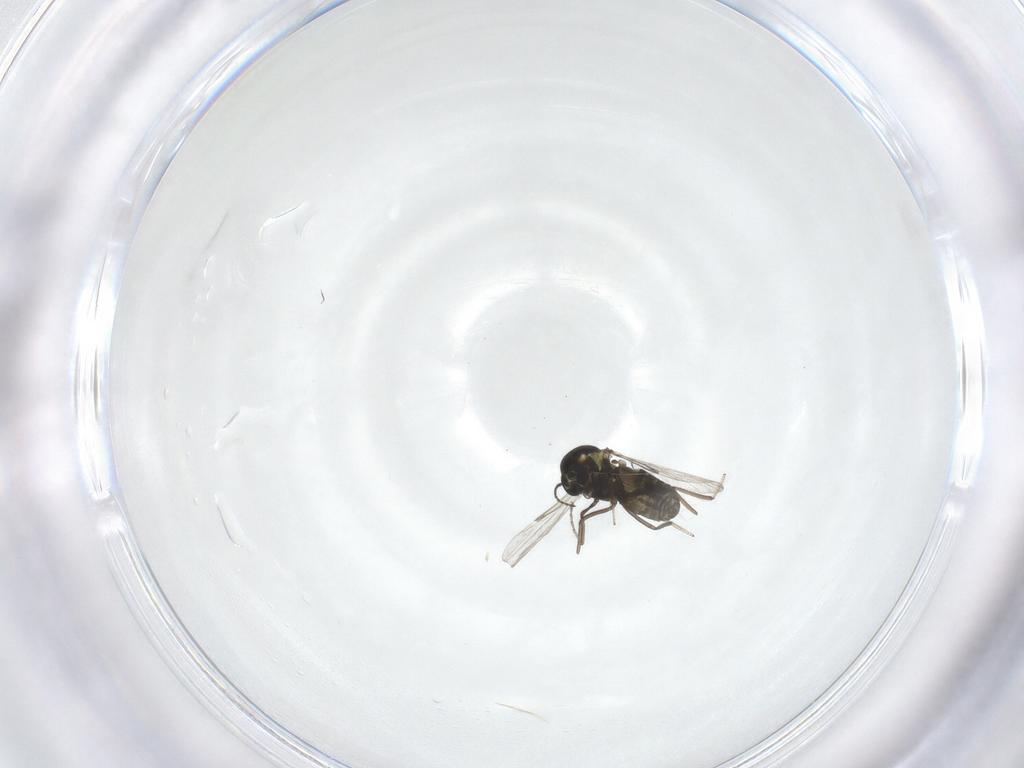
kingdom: Animalia
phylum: Arthropoda
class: Insecta
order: Diptera
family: Ceratopogonidae
